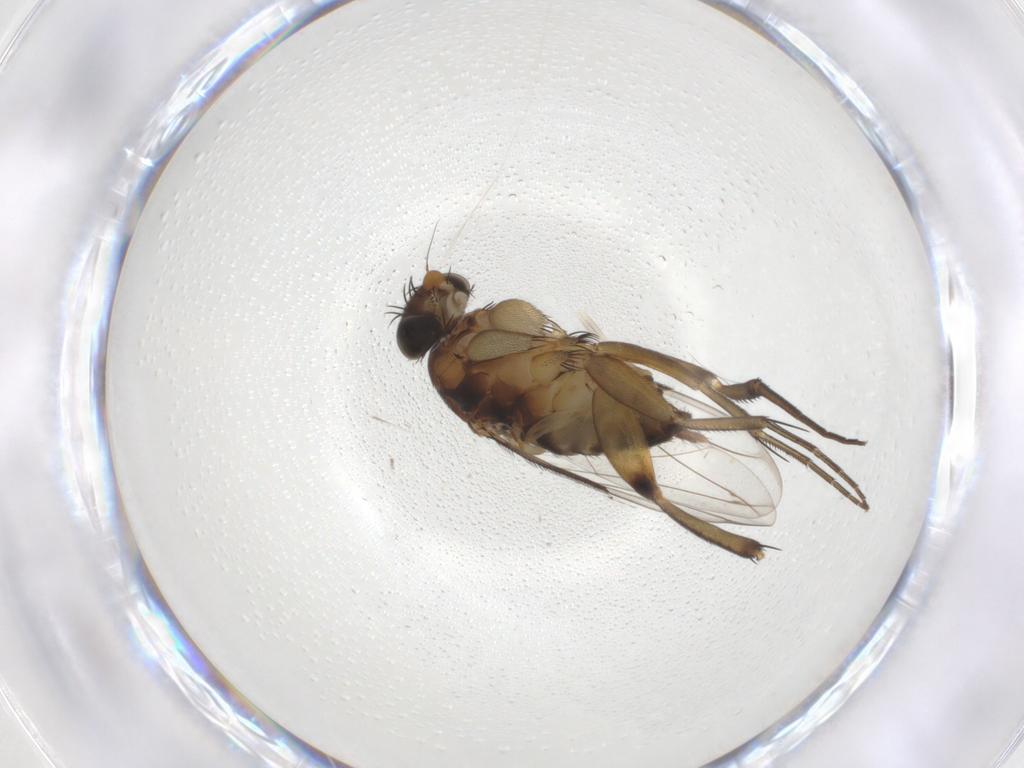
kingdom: Animalia
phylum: Arthropoda
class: Insecta
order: Diptera
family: Phoridae
